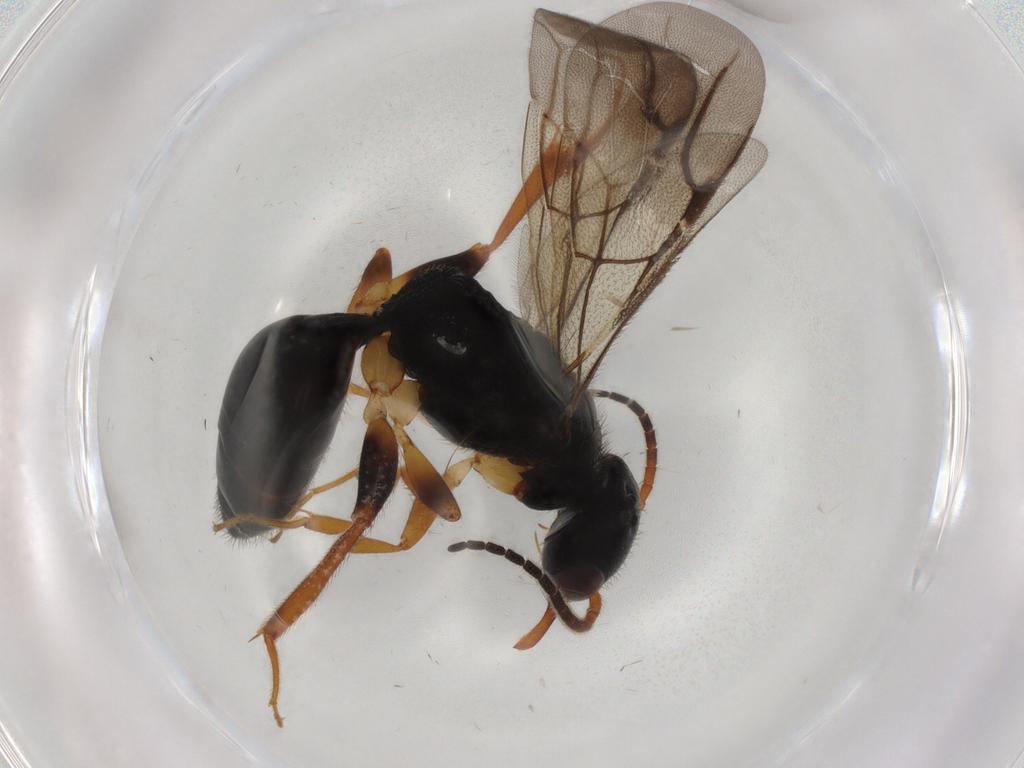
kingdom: Animalia
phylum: Arthropoda
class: Insecta
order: Hymenoptera
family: Bethylidae
